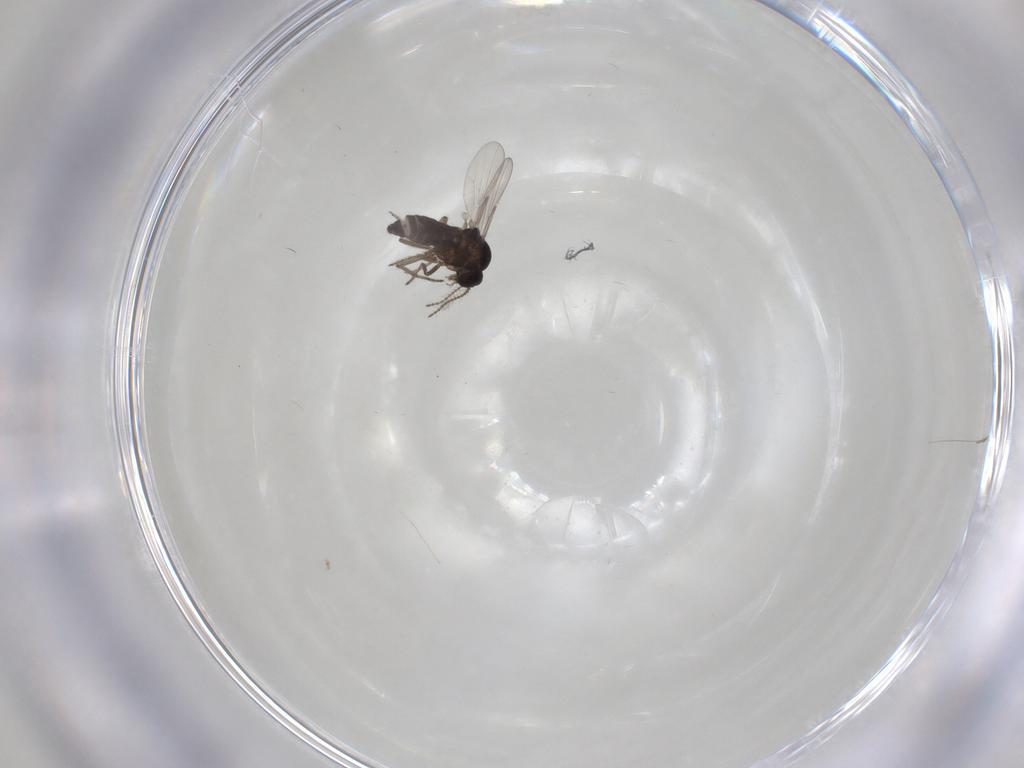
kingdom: Animalia
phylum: Arthropoda
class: Insecta
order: Diptera
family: Ceratopogonidae
